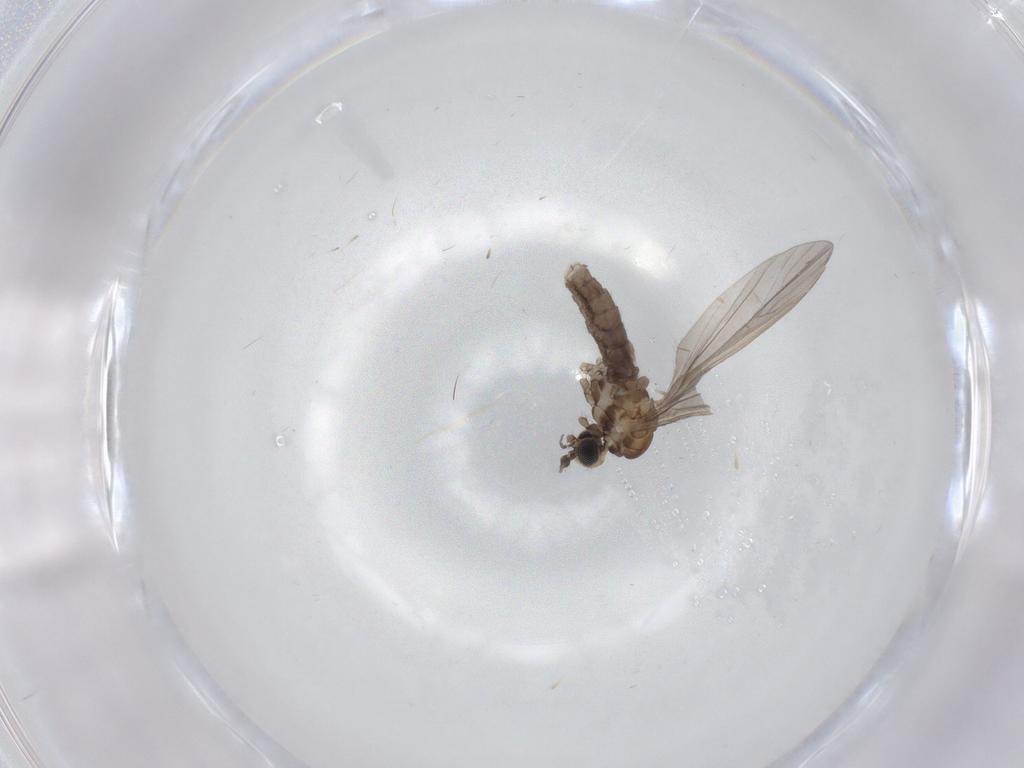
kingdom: Animalia
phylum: Arthropoda
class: Insecta
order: Diptera
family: Limoniidae
